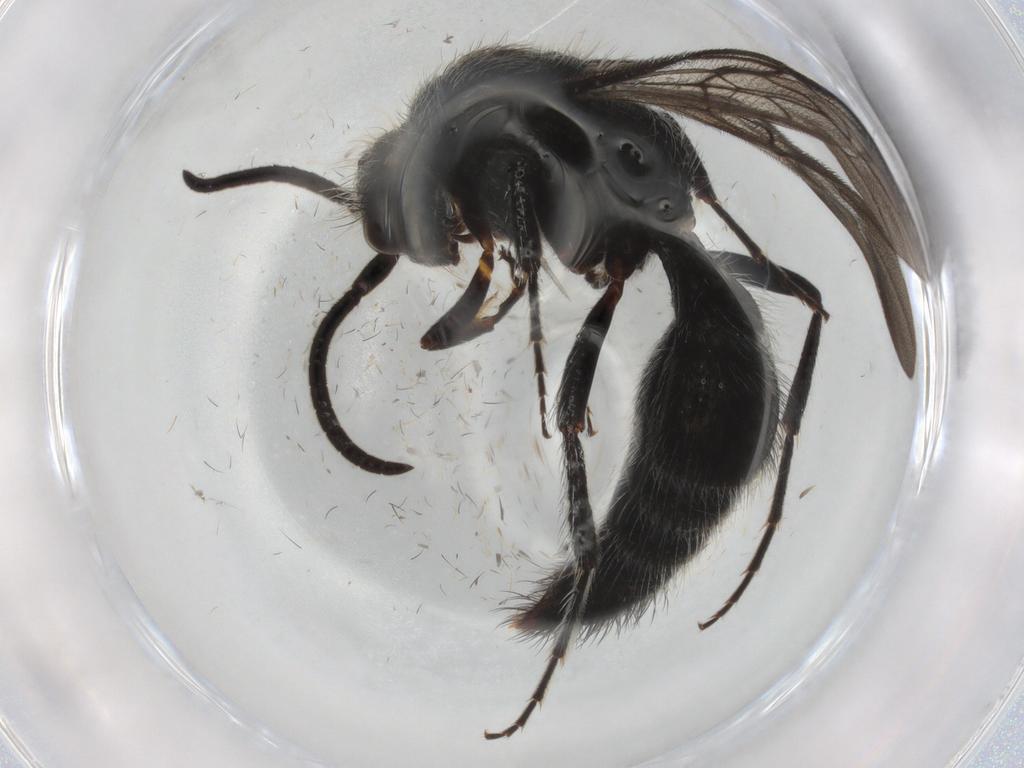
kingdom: Animalia
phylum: Arthropoda
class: Insecta
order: Hymenoptera
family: Mutillidae
